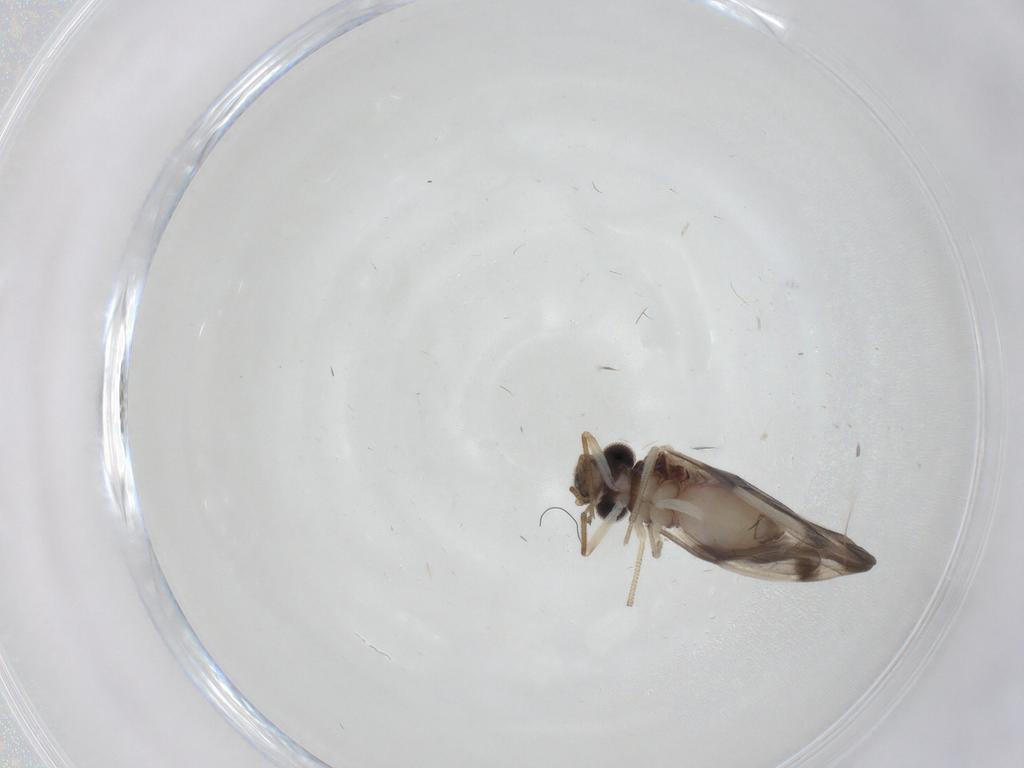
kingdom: Animalia
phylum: Arthropoda
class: Insecta
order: Psocodea
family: Caeciliusidae
